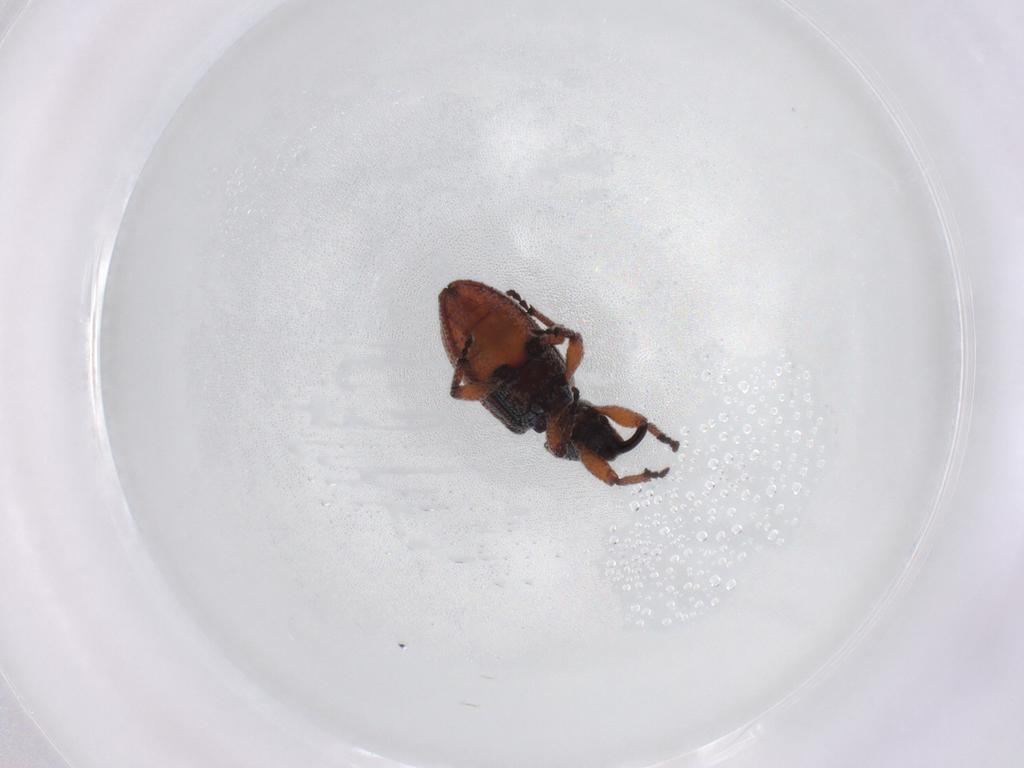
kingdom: Animalia
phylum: Arthropoda
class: Insecta
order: Coleoptera
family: Curculionidae
